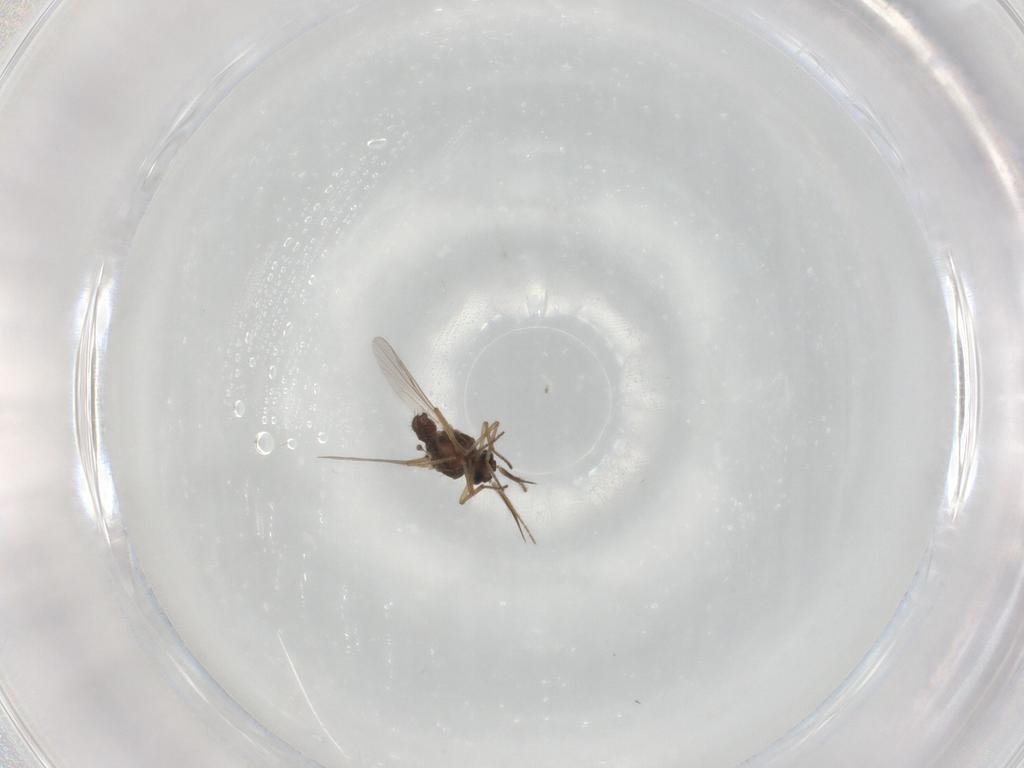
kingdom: Animalia
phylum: Arthropoda
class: Insecta
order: Diptera
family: Ceratopogonidae
